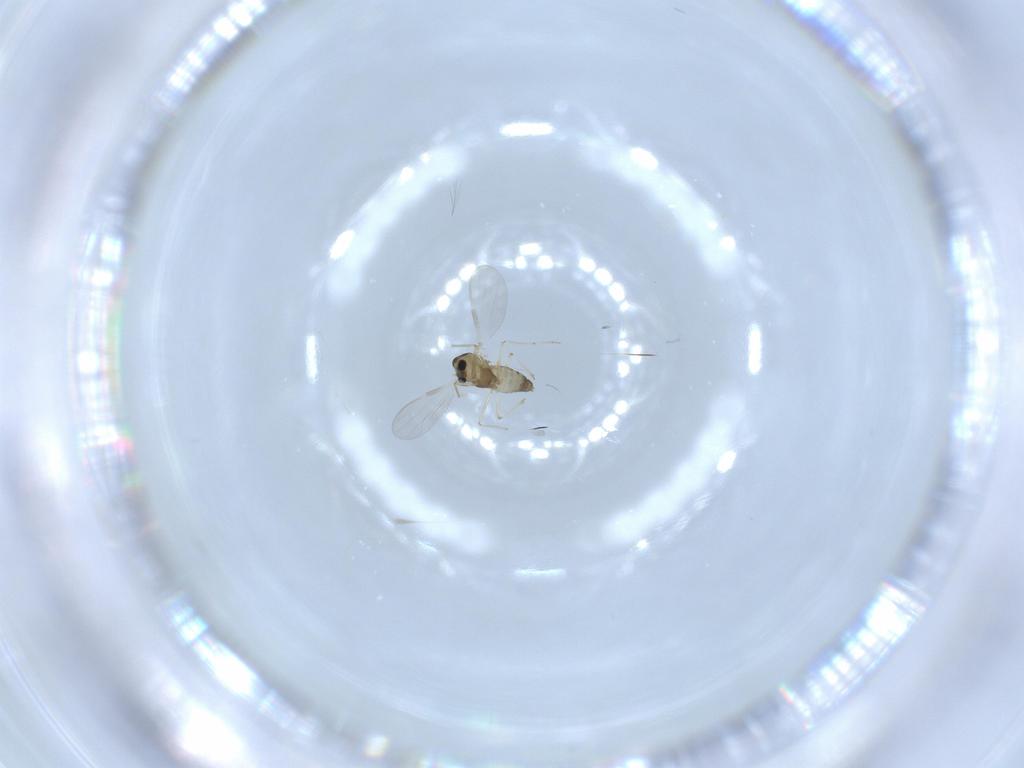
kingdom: Animalia
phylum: Arthropoda
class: Insecta
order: Diptera
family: Chironomidae
